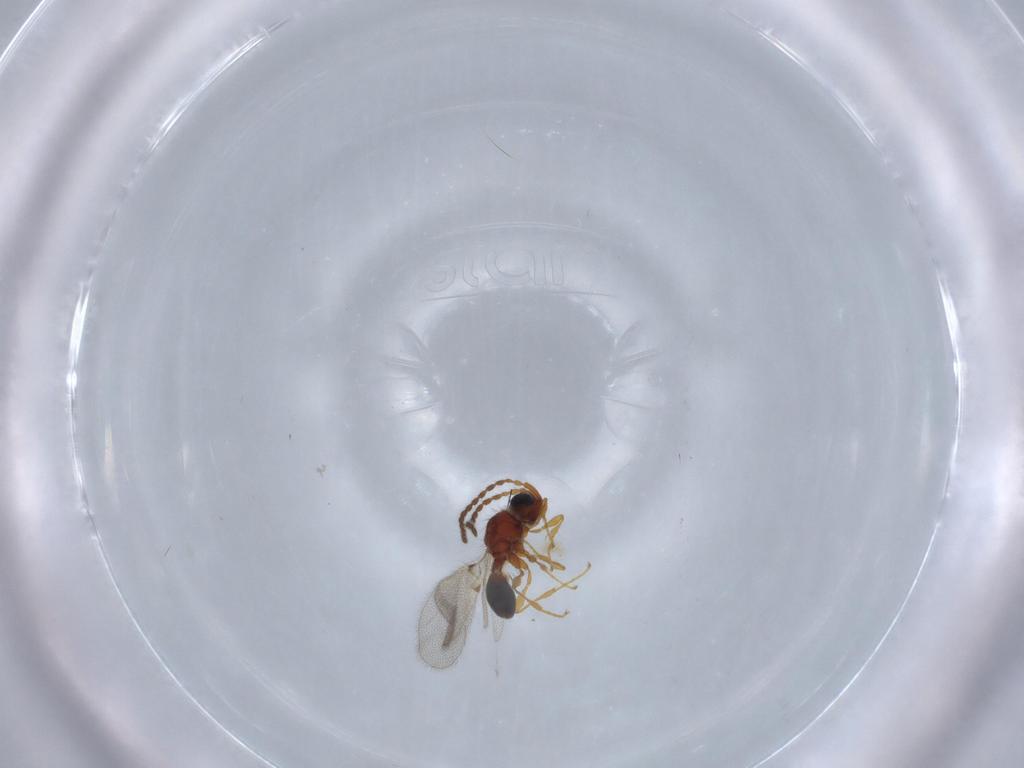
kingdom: Animalia
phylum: Arthropoda
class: Insecta
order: Hymenoptera
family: Diapriidae
